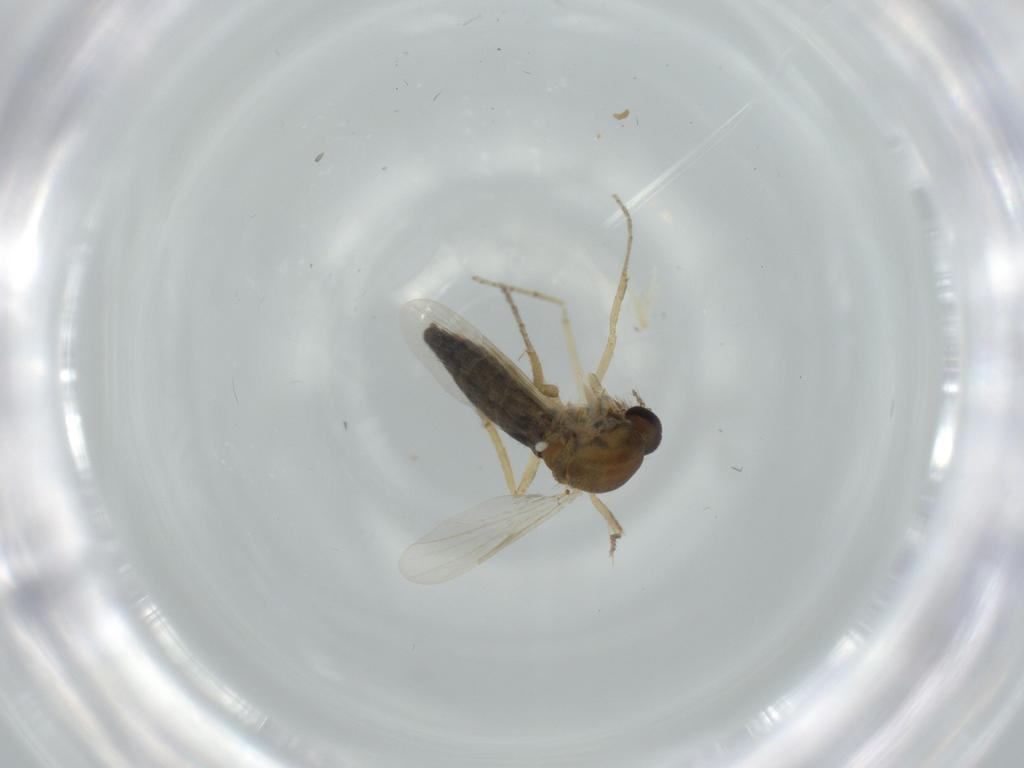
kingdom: Animalia
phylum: Arthropoda
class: Insecta
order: Diptera
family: Ceratopogonidae
